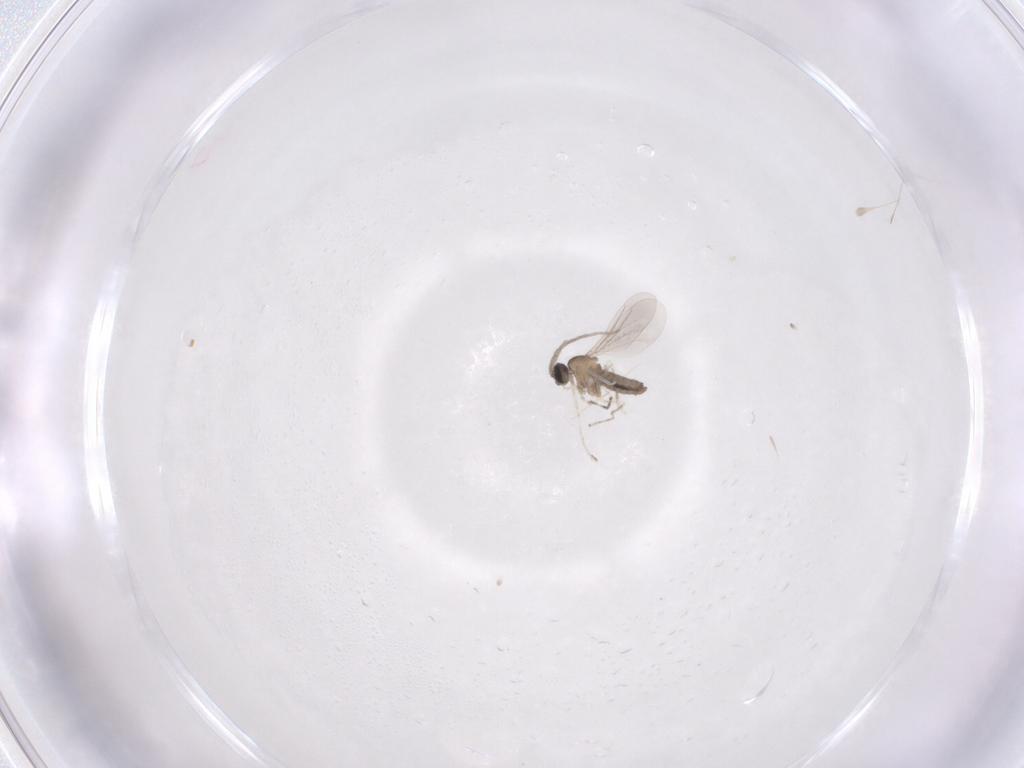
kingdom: Animalia
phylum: Arthropoda
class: Insecta
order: Diptera
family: Cecidomyiidae
